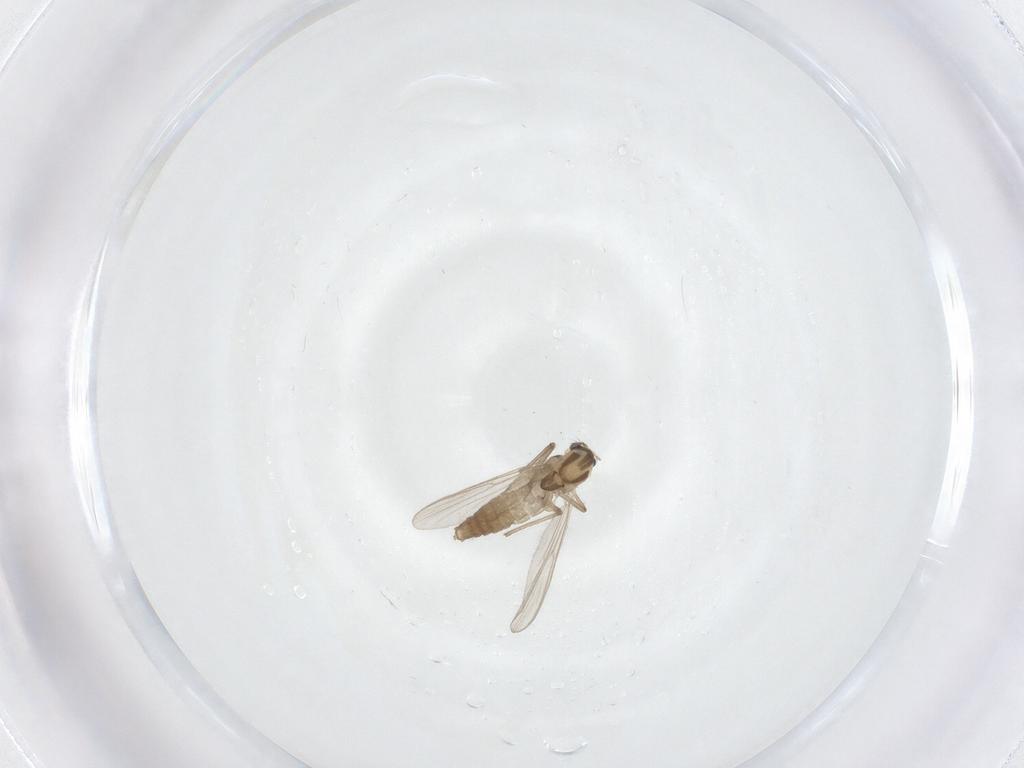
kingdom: Animalia
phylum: Arthropoda
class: Insecta
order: Diptera
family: Chironomidae
